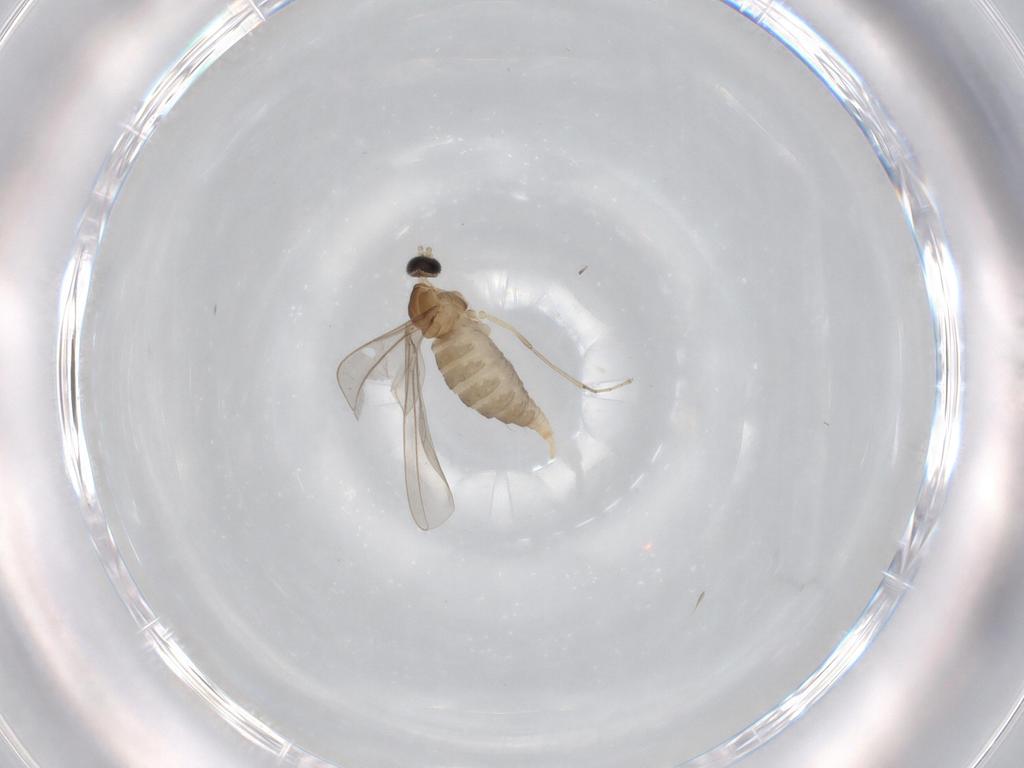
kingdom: Animalia
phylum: Arthropoda
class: Insecta
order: Diptera
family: Cecidomyiidae
